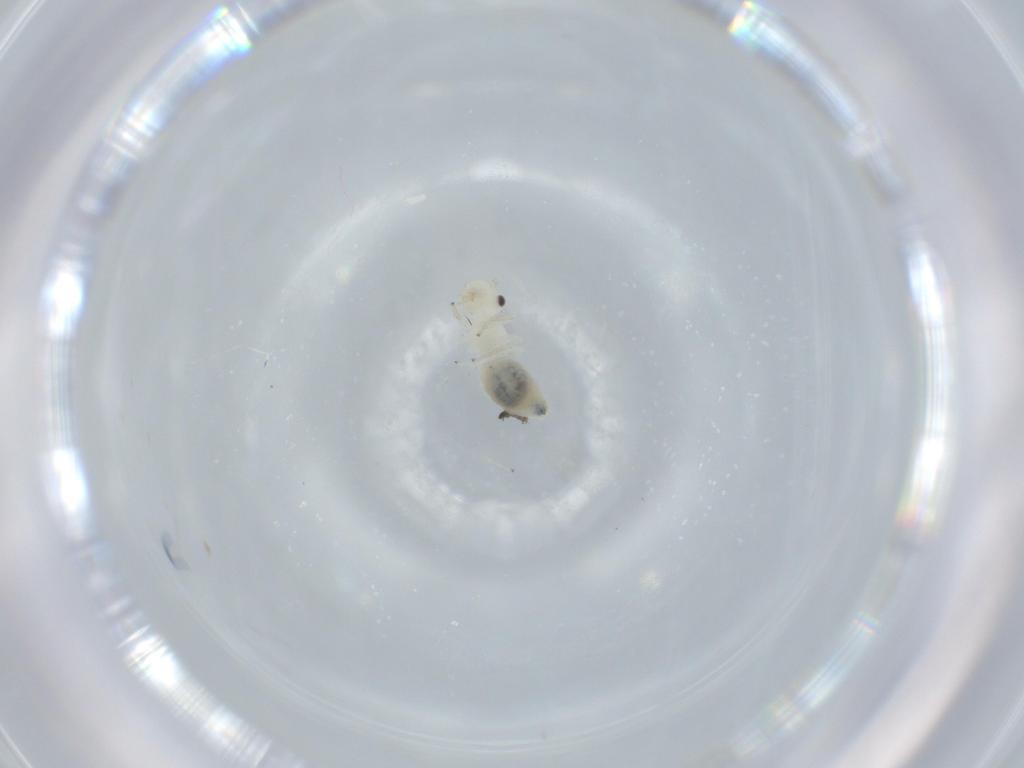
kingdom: Animalia
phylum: Arthropoda
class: Insecta
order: Psocodea
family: Caeciliusidae
